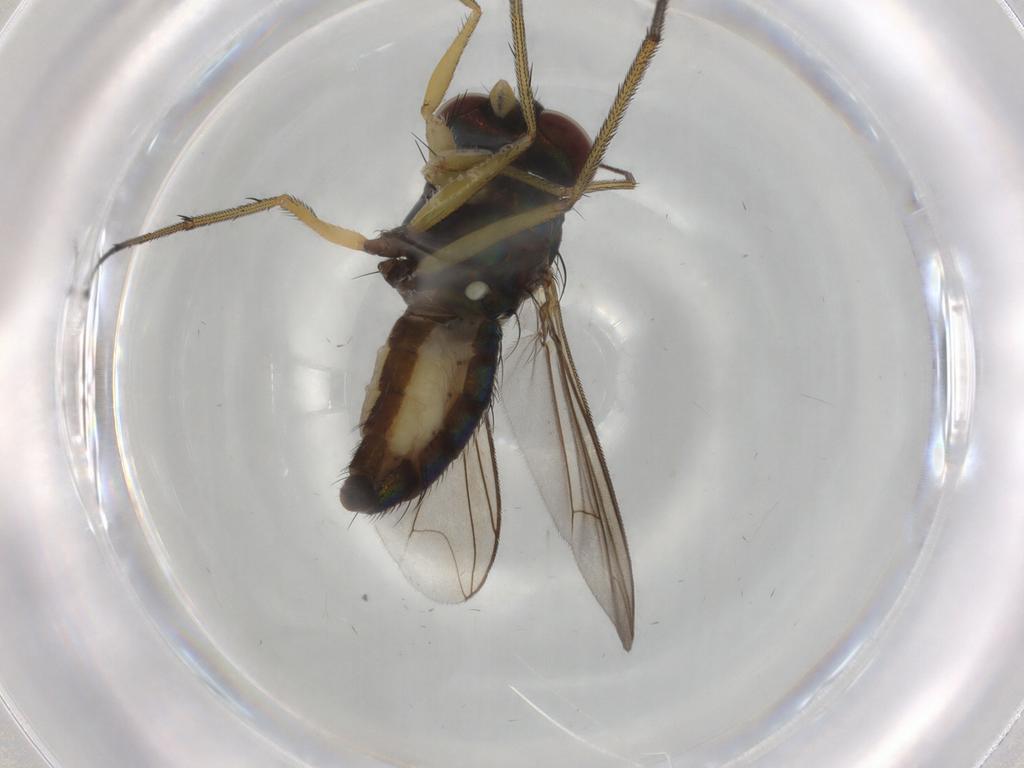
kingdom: Animalia
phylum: Arthropoda
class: Insecta
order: Diptera
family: Dolichopodidae
